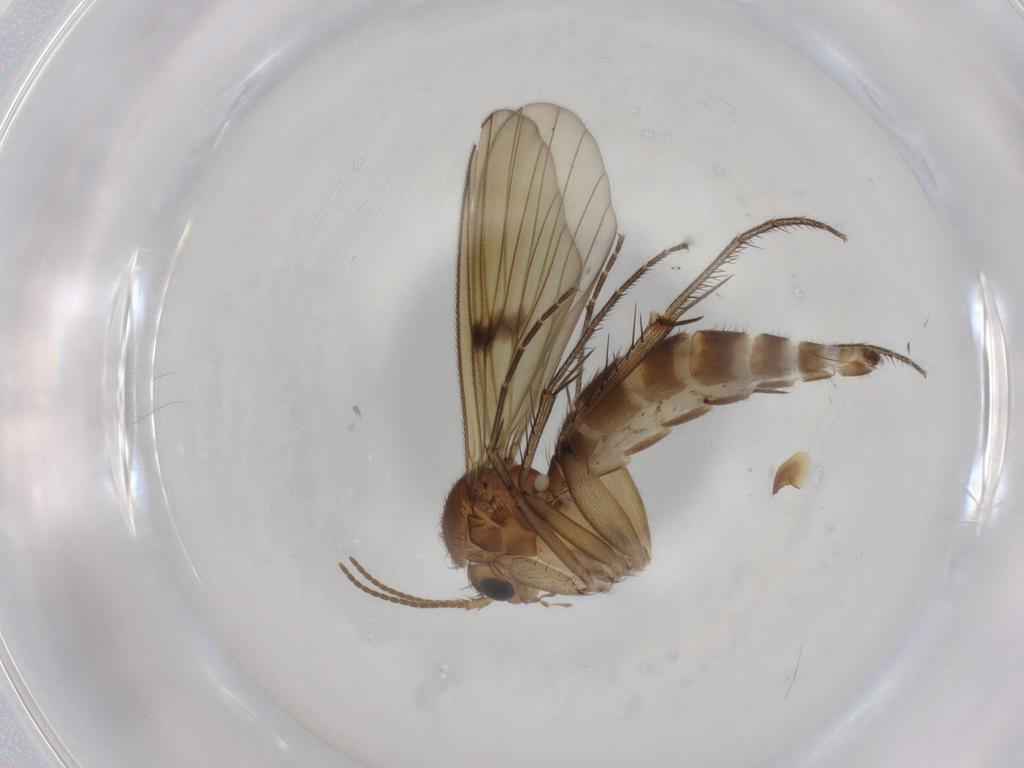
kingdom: Animalia
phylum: Arthropoda
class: Insecta
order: Diptera
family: Mycetophilidae
